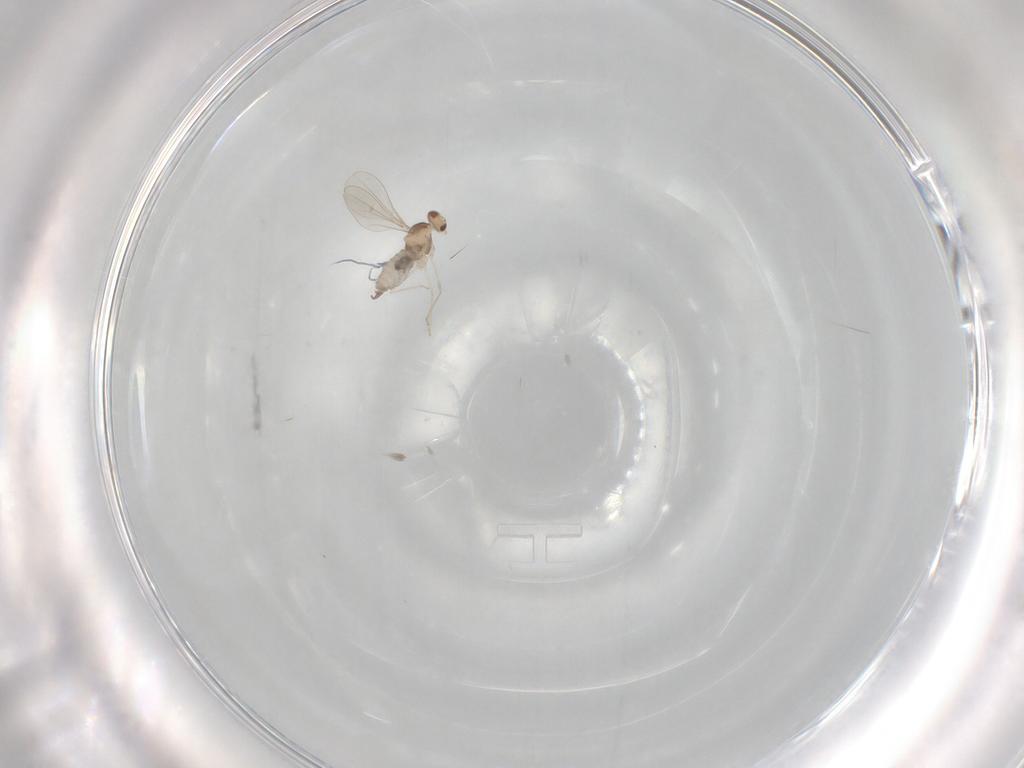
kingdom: Animalia
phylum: Arthropoda
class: Insecta
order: Diptera
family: Cecidomyiidae
